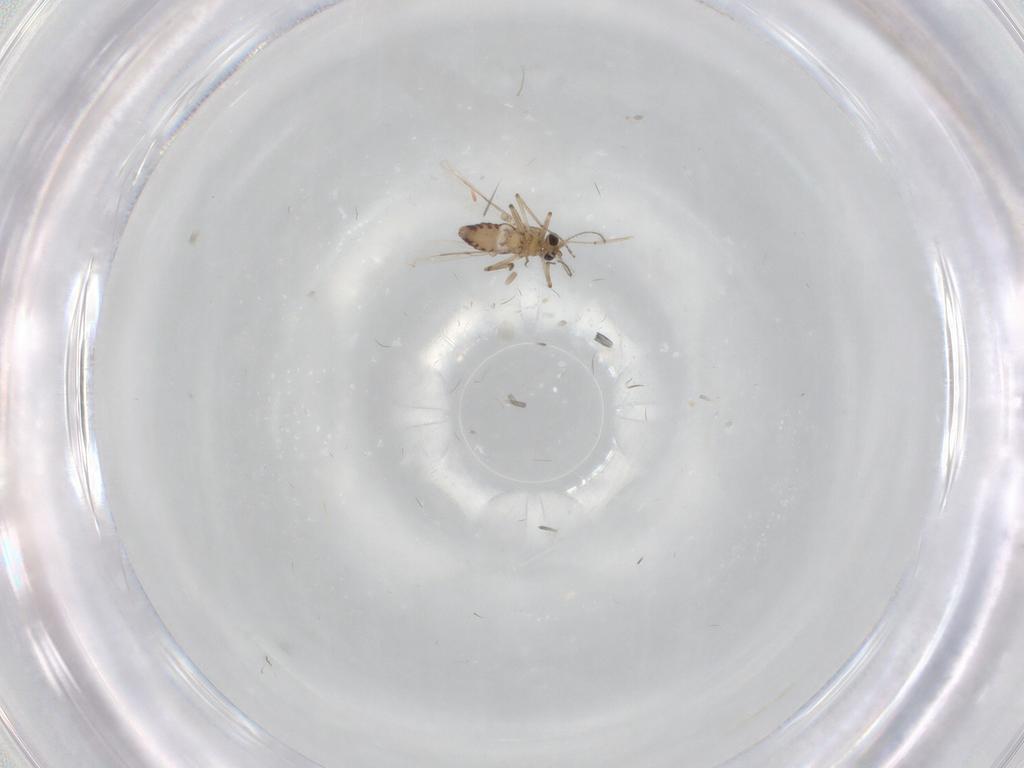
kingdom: Animalia
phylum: Arthropoda
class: Insecta
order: Diptera
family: Ceratopogonidae
